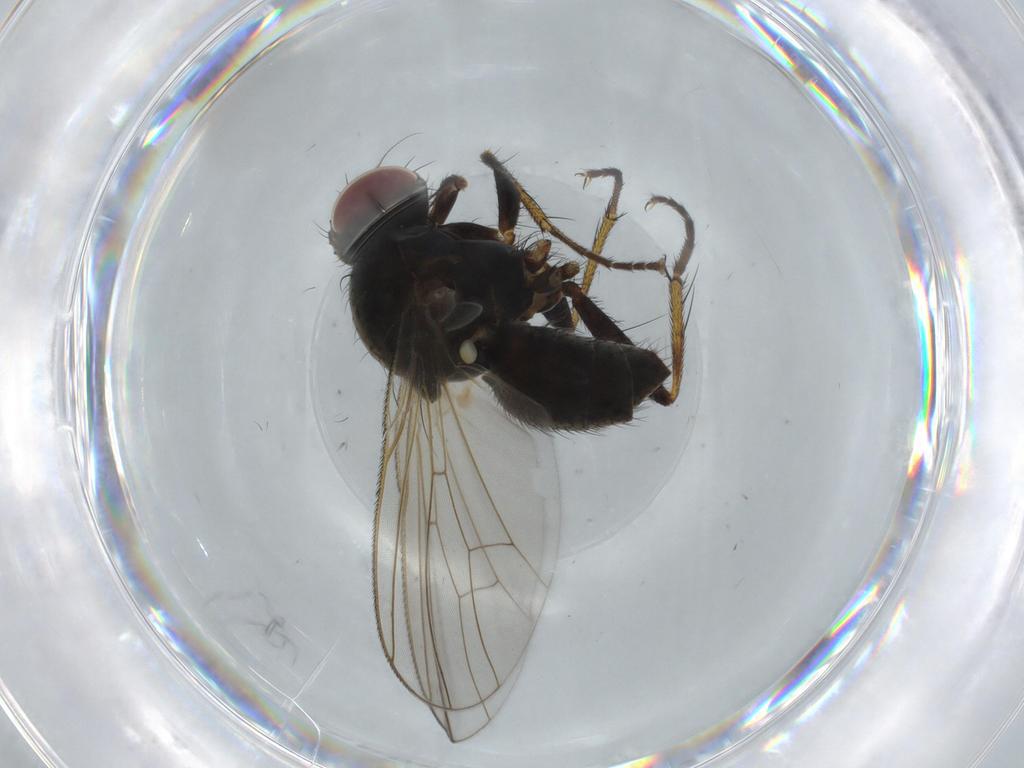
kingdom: Animalia
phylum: Arthropoda
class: Insecta
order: Diptera
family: Muscidae
